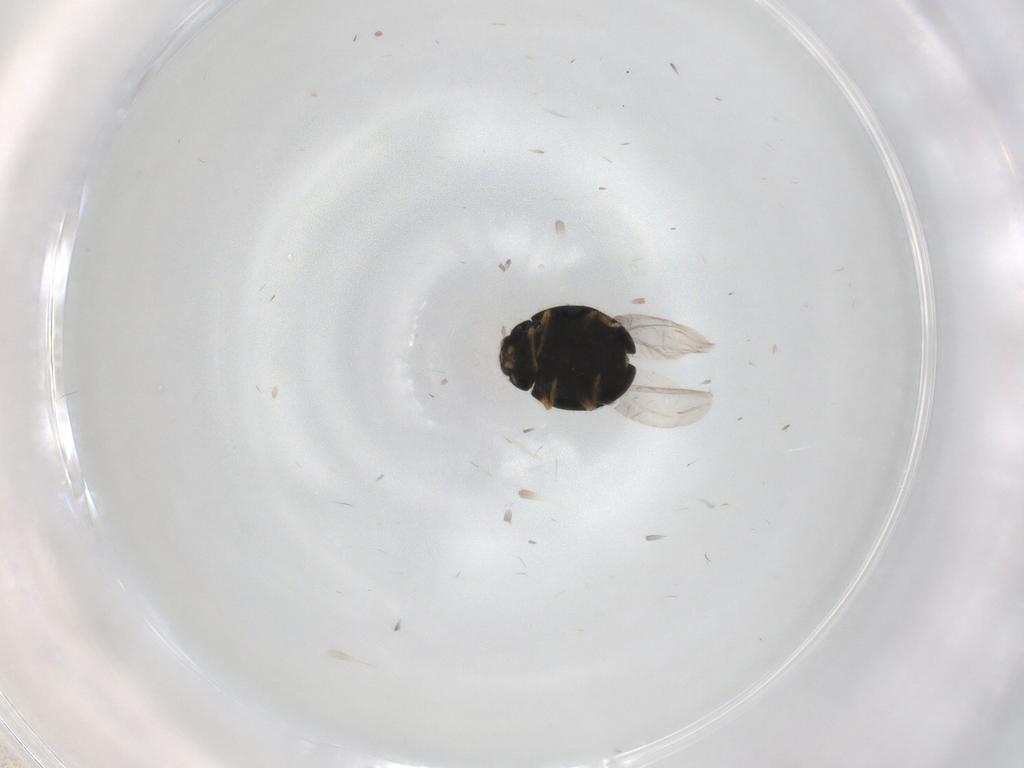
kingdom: Animalia
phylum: Arthropoda
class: Insecta
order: Coleoptera
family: Coccinellidae
